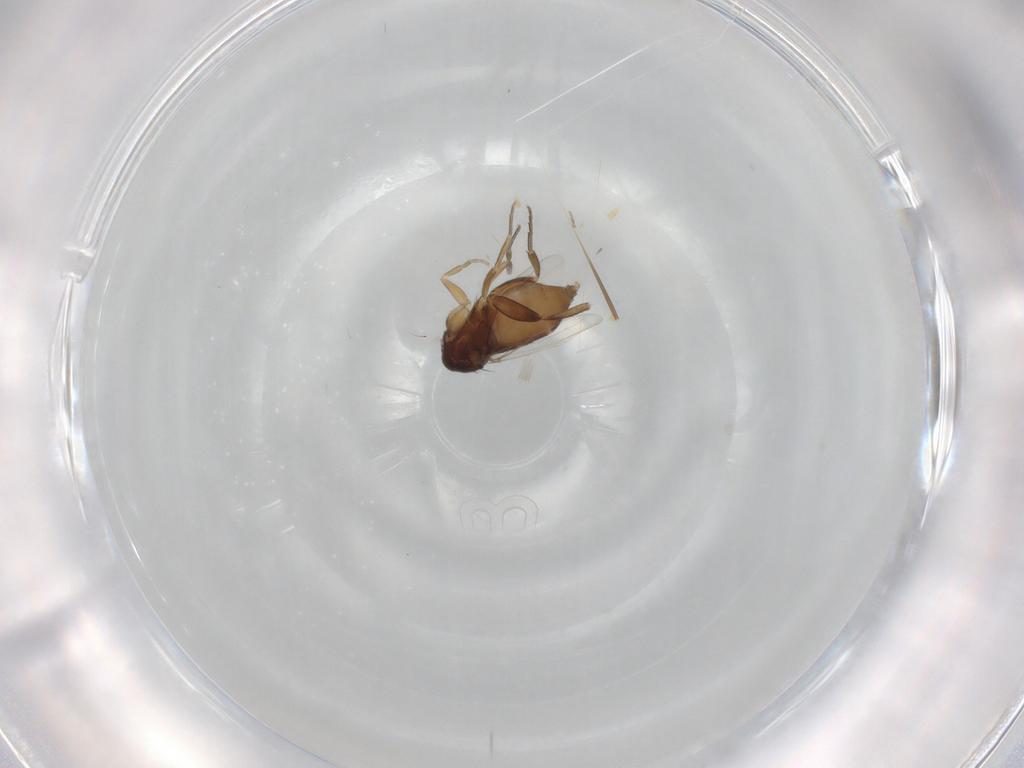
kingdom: Animalia
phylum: Arthropoda
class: Insecta
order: Diptera
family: Phoridae
